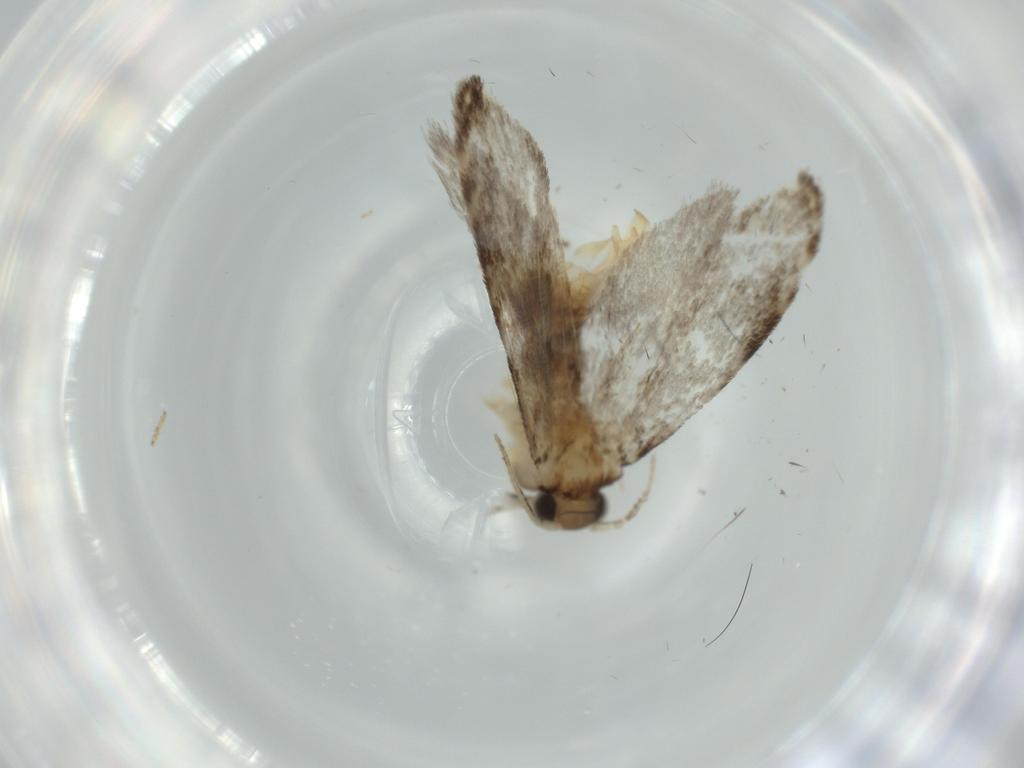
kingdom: Animalia
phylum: Arthropoda
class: Insecta
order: Lepidoptera
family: Tineidae
